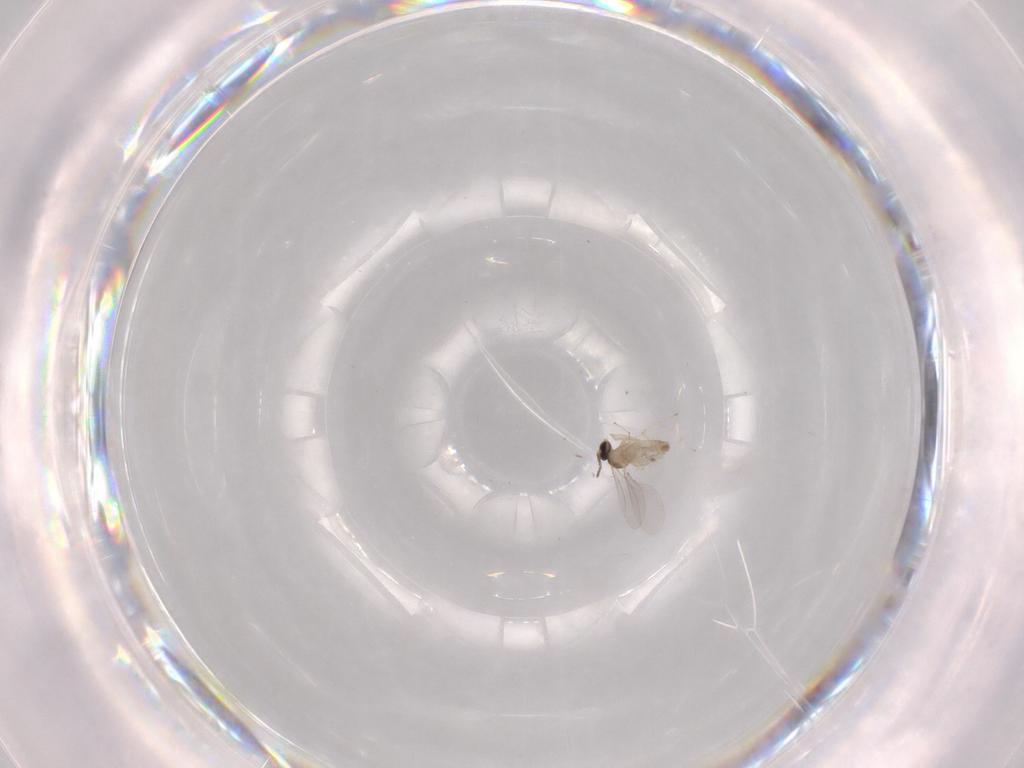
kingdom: Animalia
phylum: Arthropoda
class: Insecta
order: Diptera
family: Cecidomyiidae
